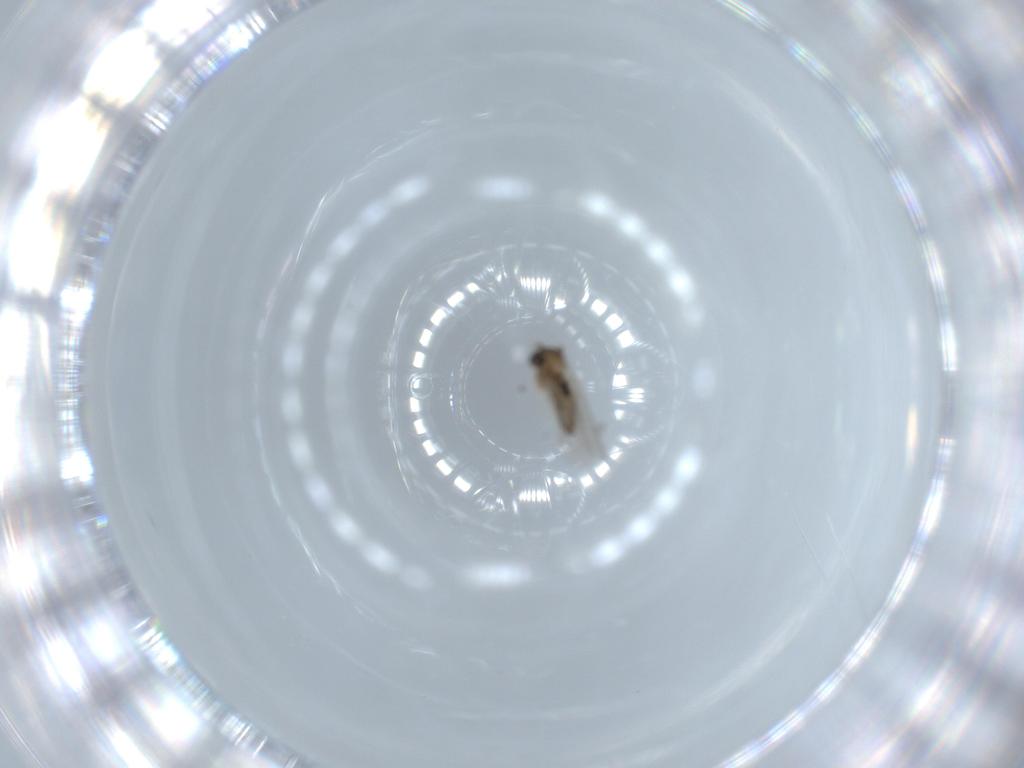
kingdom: Animalia
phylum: Arthropoda
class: Insecta
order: Diptera
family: Cecidomyiidae
